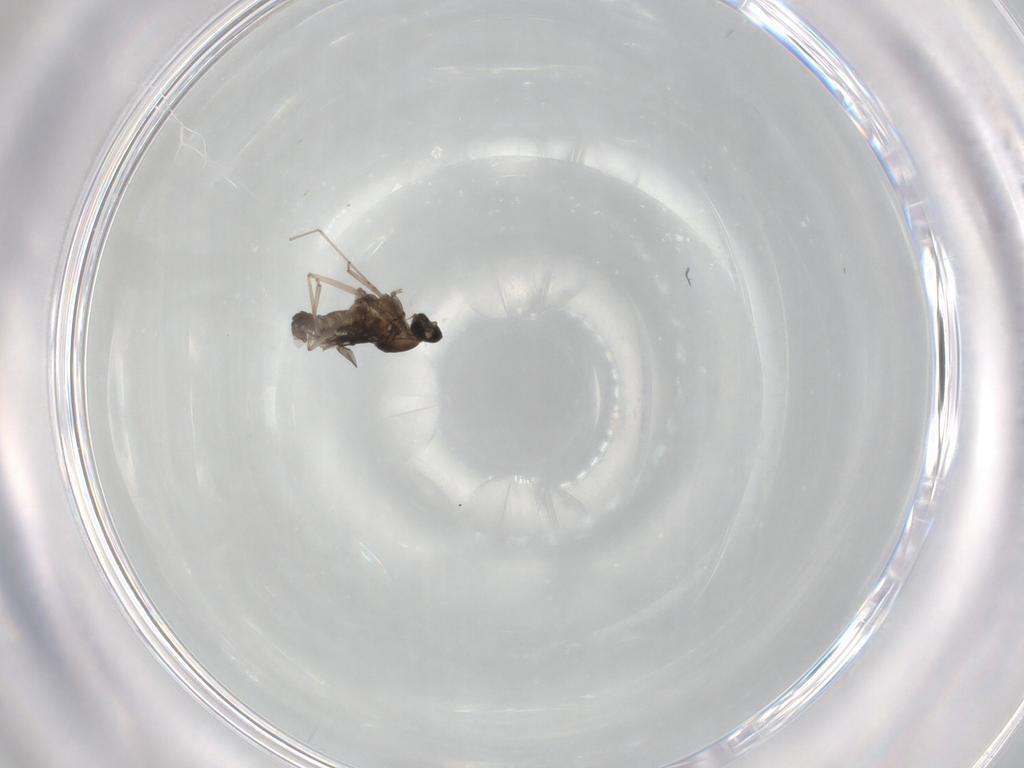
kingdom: Animalia
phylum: Arthropoda
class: Insecta
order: Diptera
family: Cecidomyiidae
